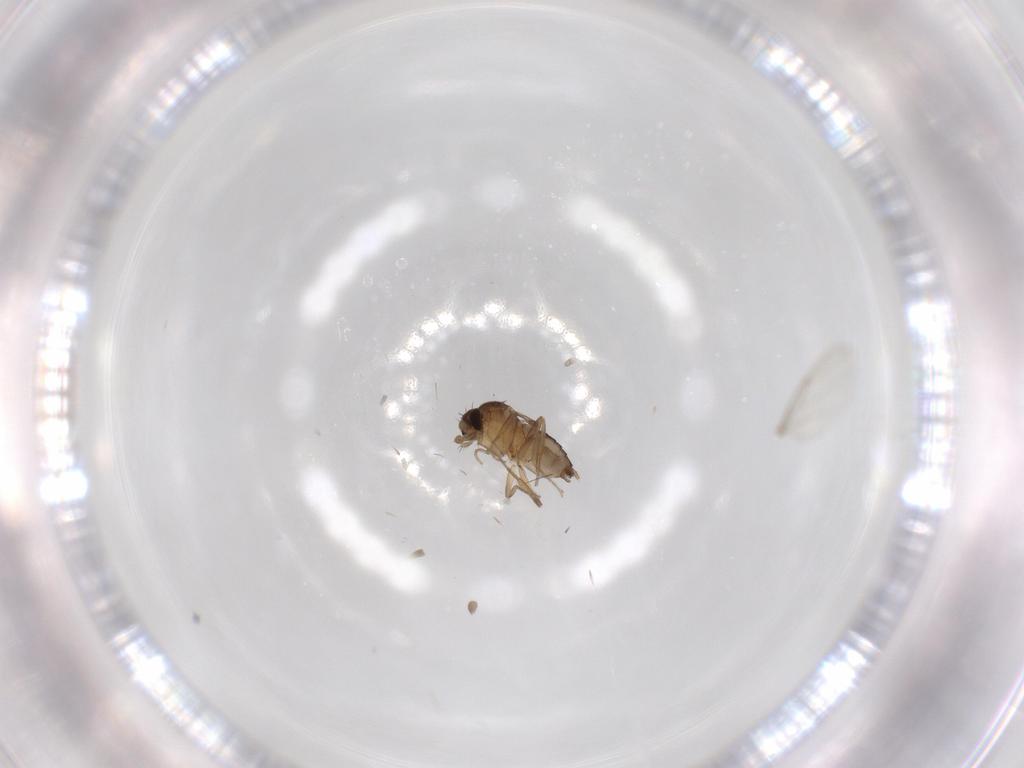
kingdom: Animalia
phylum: Arthropoda
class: Insecta
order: Diptera
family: Phoridae
